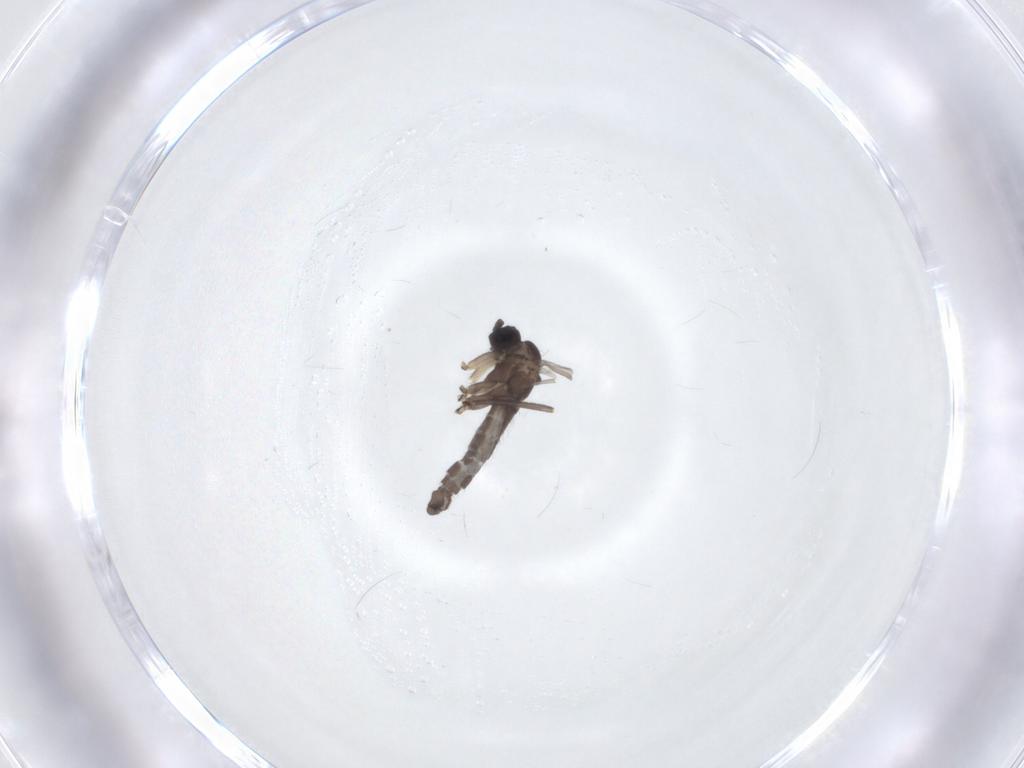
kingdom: Animalia
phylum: Arthropoda
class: Insecta
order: Diptera
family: Sciaridae
